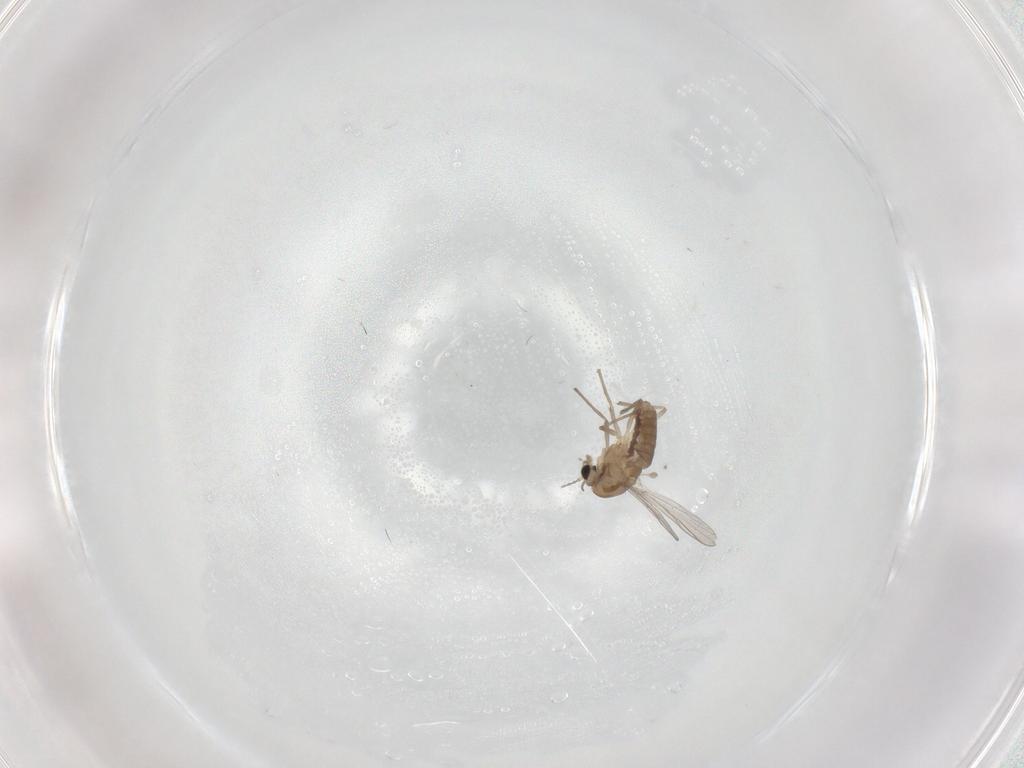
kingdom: Animalia
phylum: Arthropoda
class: Insecta
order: Diptera
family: Chironomidae
